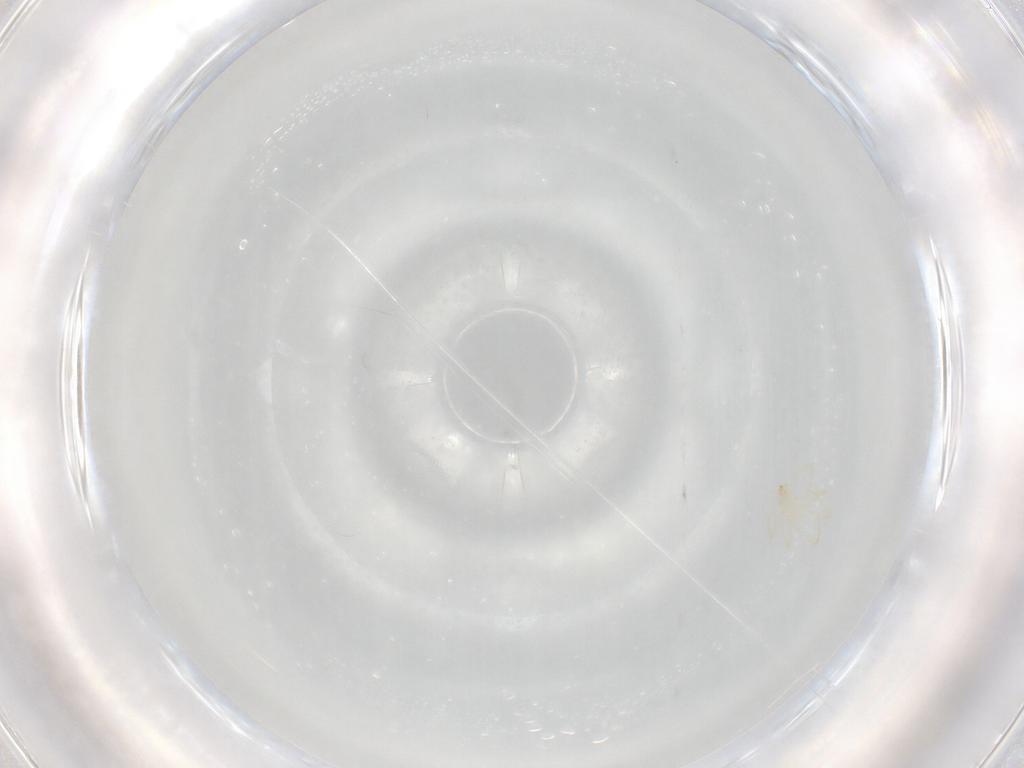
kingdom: Animalia
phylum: Arthropoda
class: Arachnida
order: Trombidiformes
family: Erythraeidae
